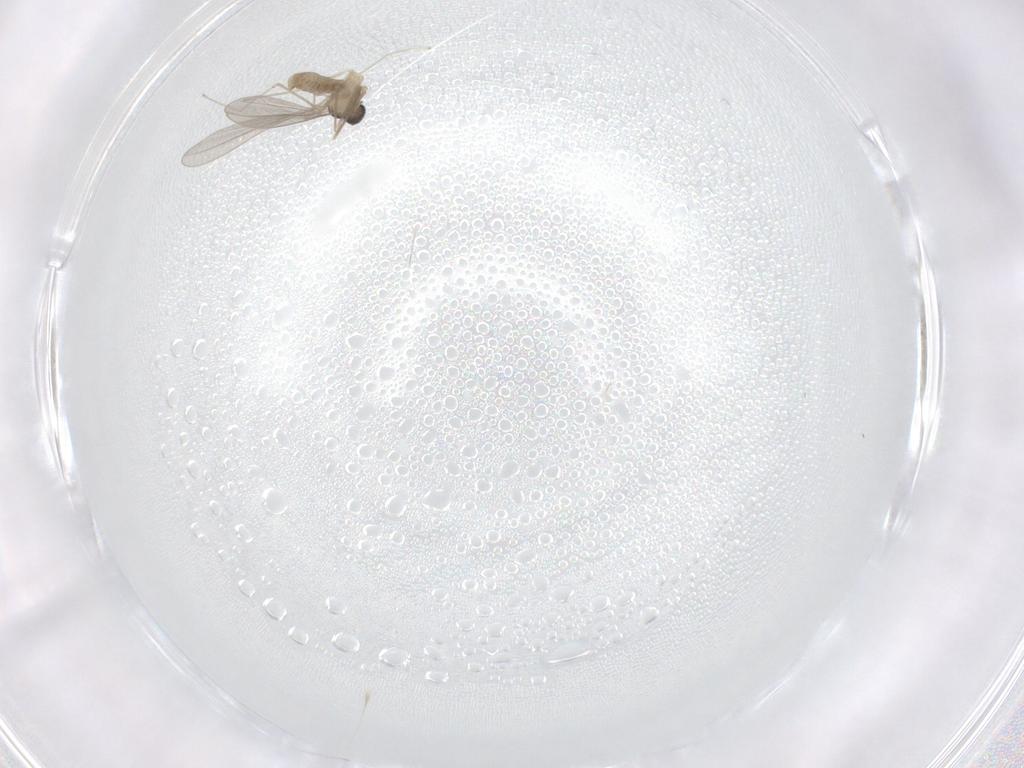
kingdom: Animalia
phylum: Arthropoda
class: Insecta
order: Diptera
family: Cecidomyiidae
